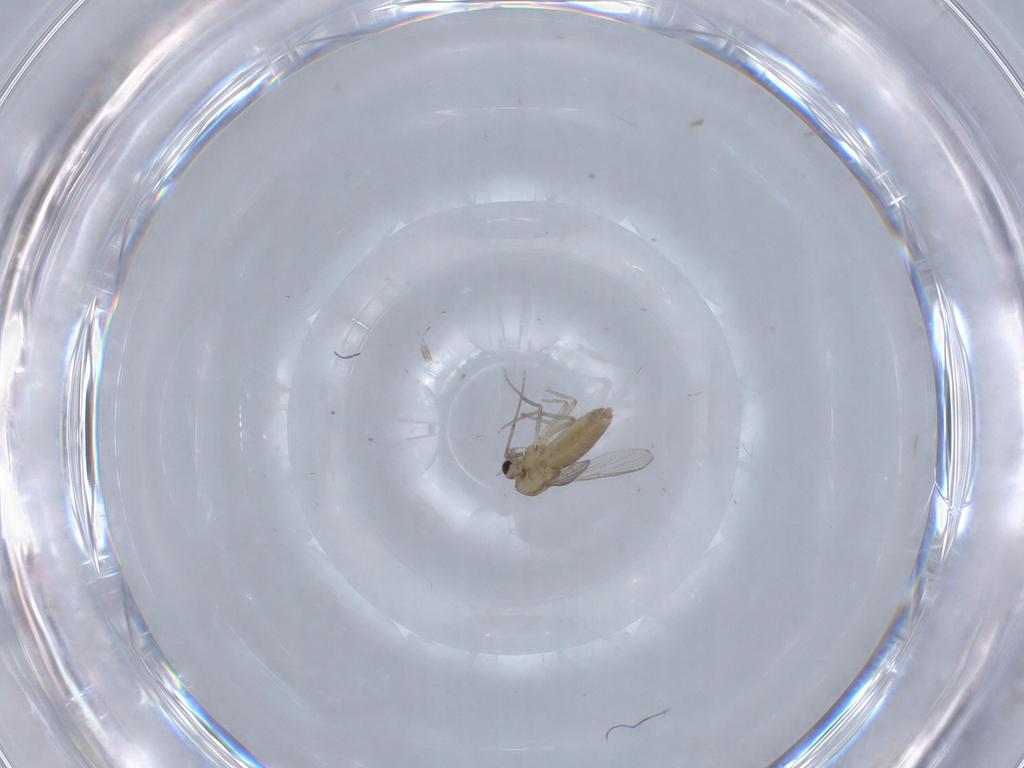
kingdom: Animalia
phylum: Arthropoda
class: Insecta
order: Diptera
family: Chironomidae
